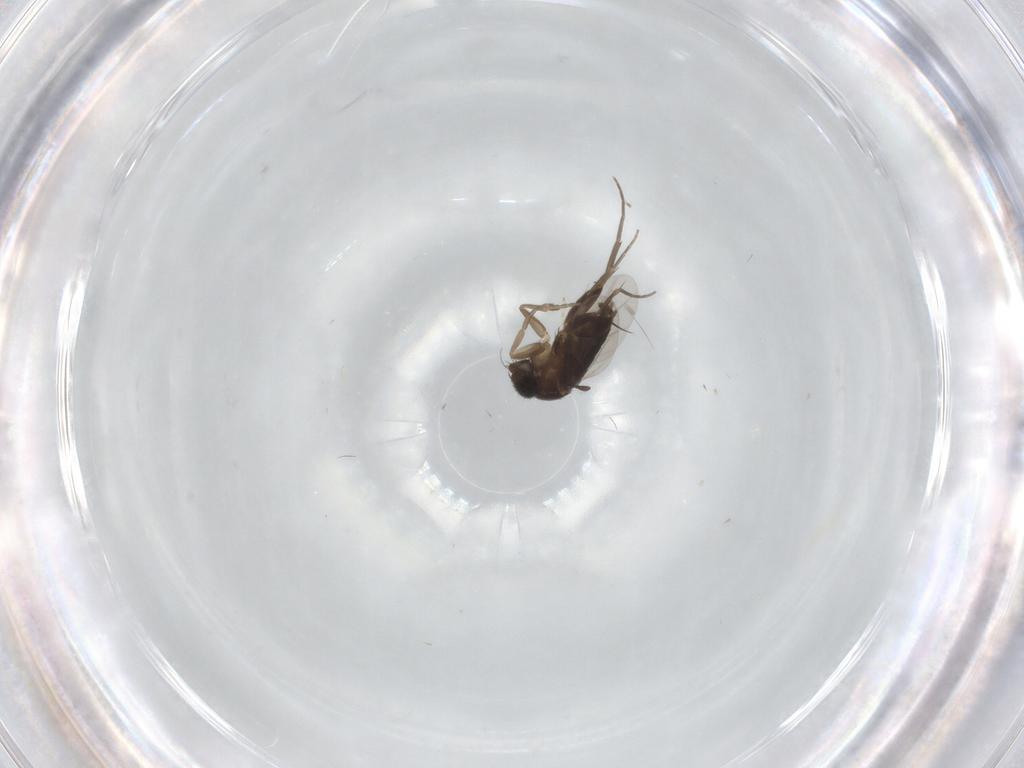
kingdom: Animalia
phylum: Arthropoda
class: Insecta
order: Diptera
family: Phoridae
